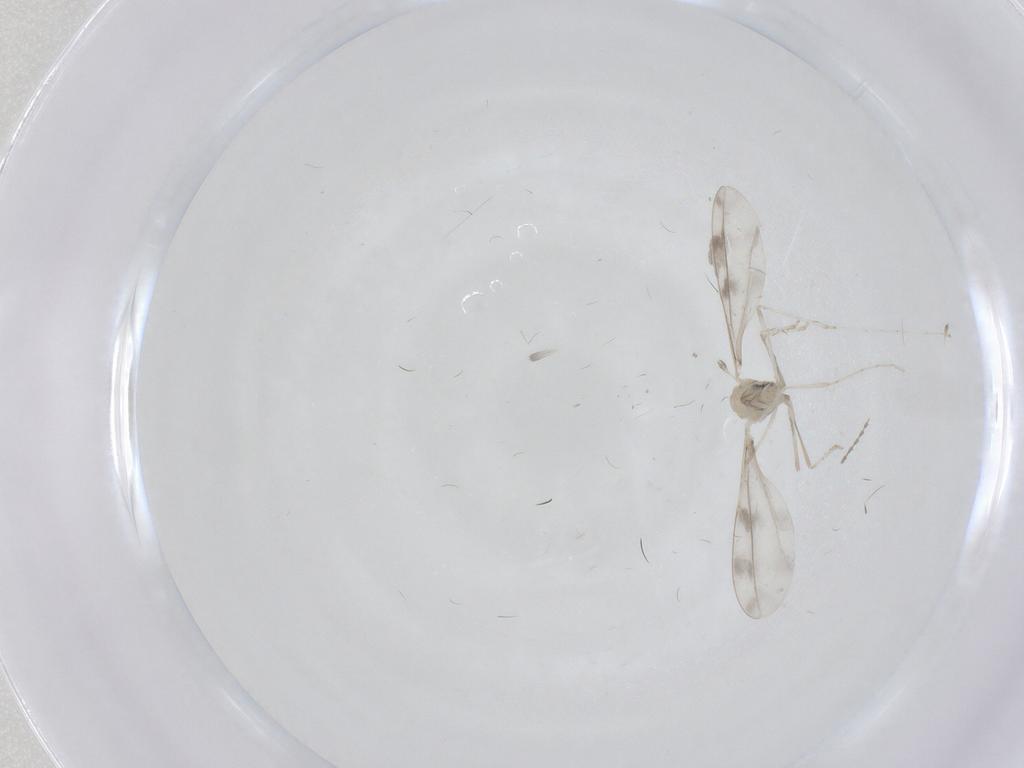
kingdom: Animalia
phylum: Arthropoda
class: Insecta
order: Diptera
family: Cecidomyiidae
